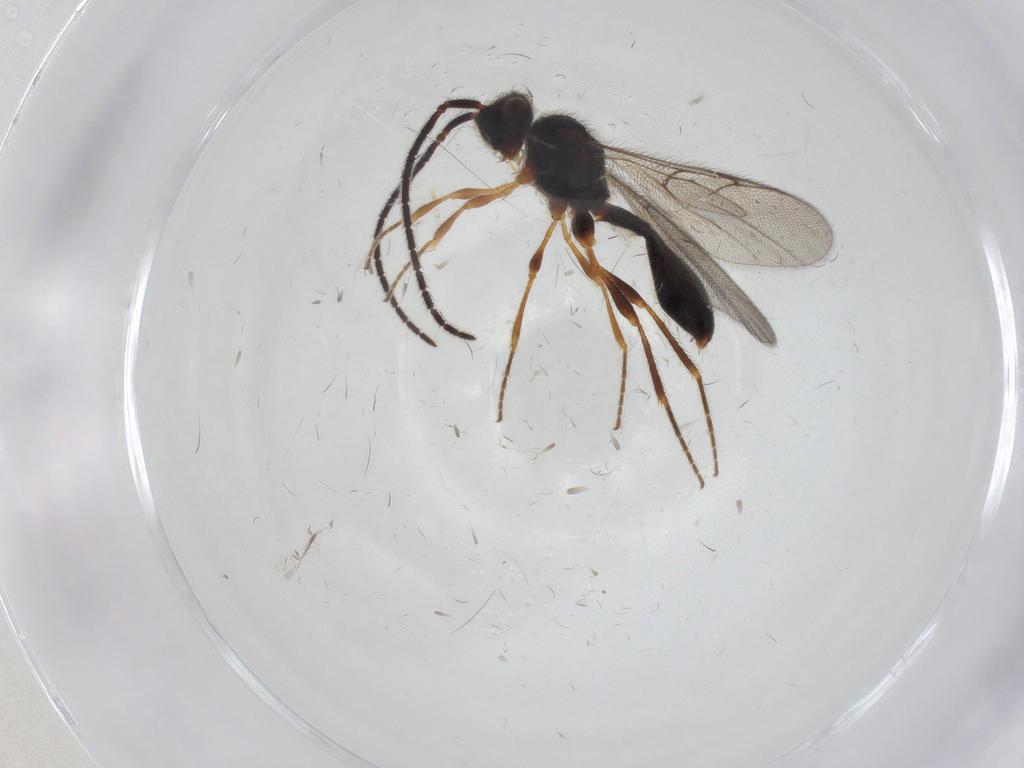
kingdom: Animalia
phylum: Arthropoda
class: Insecta
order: Hymenoptera
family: Diapriidae
